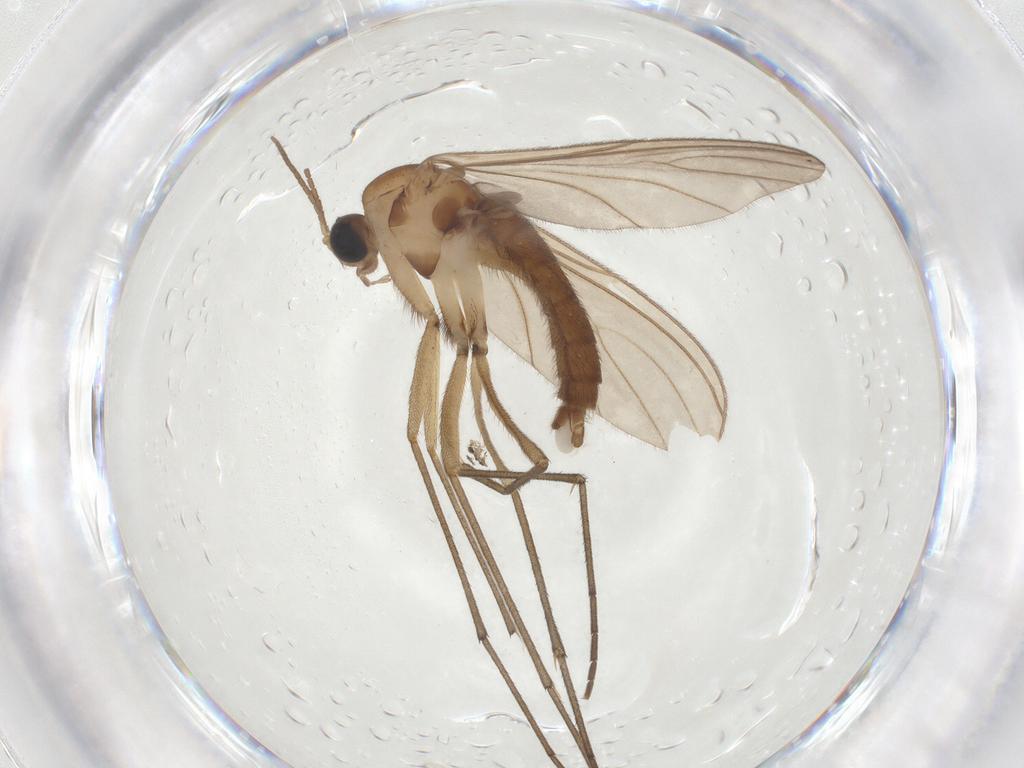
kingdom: Animalia
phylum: Arthropoda
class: Insecta
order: Diptera
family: Sciaridae
